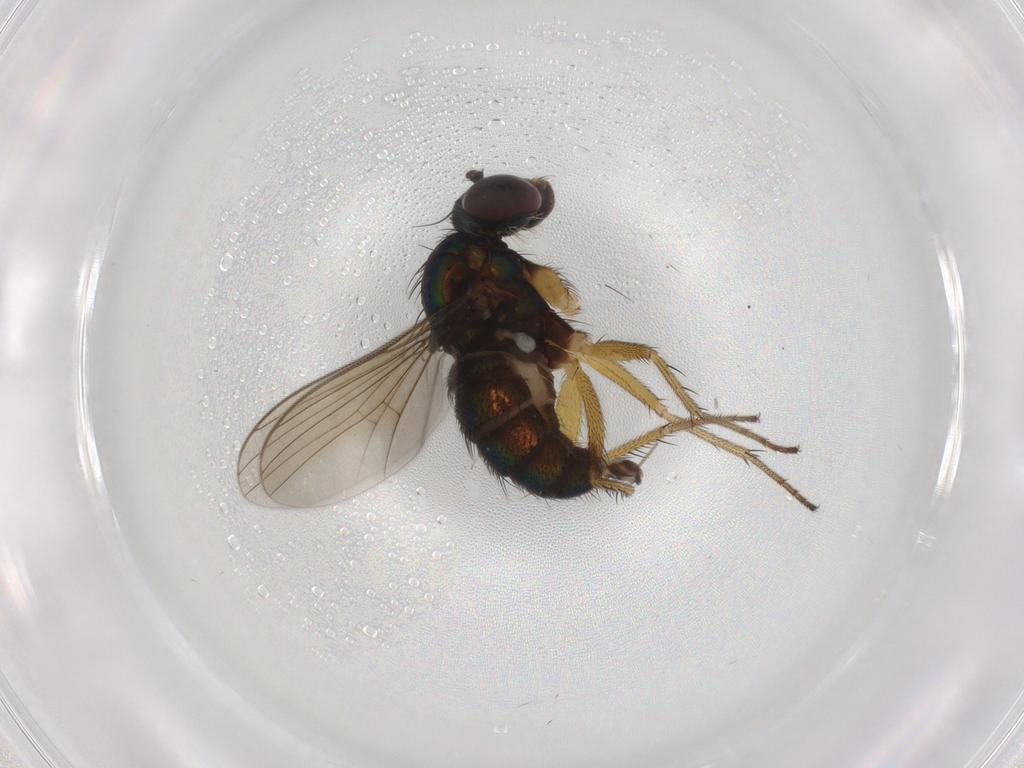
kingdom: Animalia
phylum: Arthropoda
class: Insecta
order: Diptera
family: Dolichopodidae
